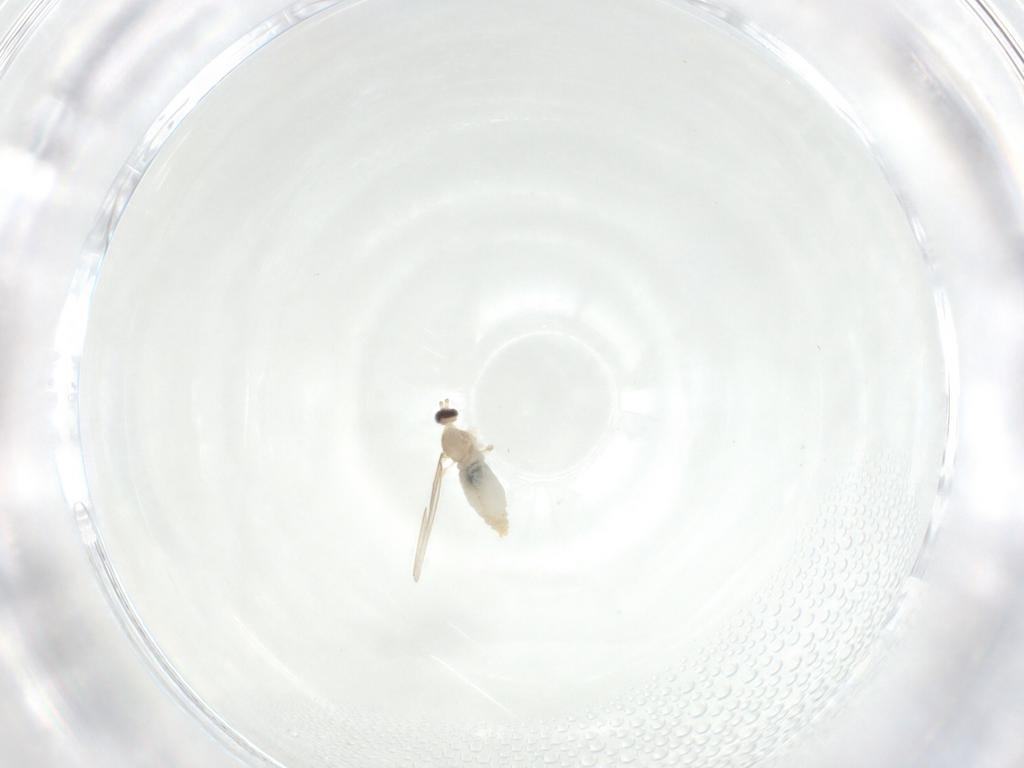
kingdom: Animalia
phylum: Arthropoda
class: Insecta
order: Diptera
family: Cecidomyiidae
